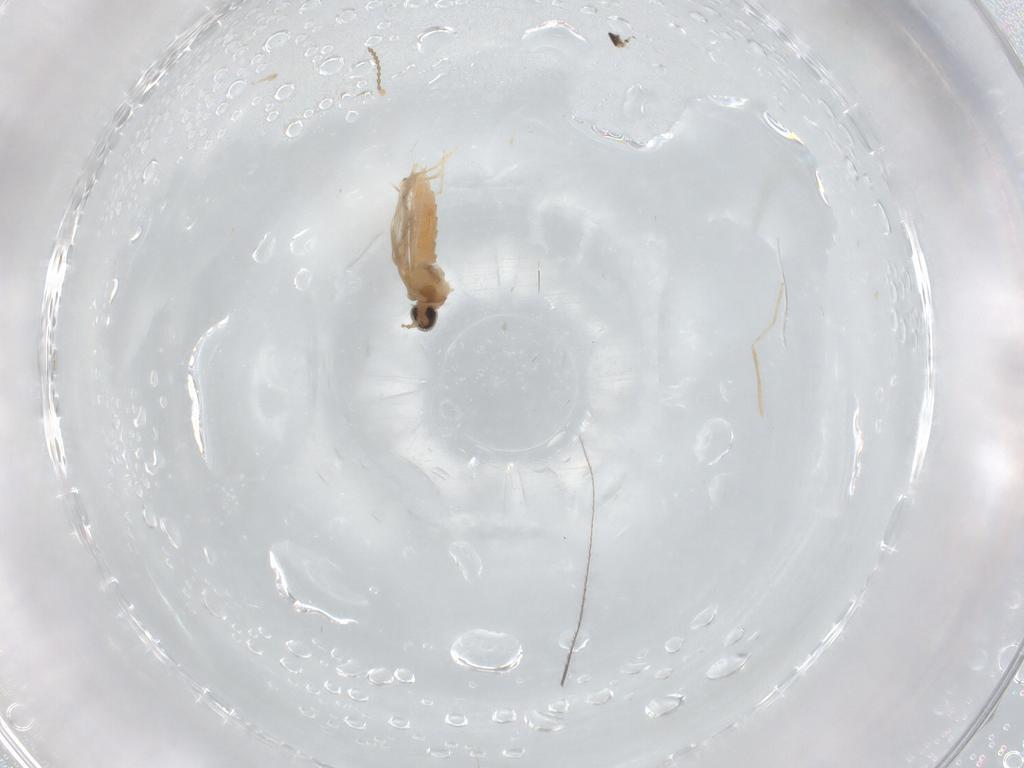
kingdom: Animalia
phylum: Arthropoda
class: Insecta
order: Diptera
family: Cecidomyiidae
